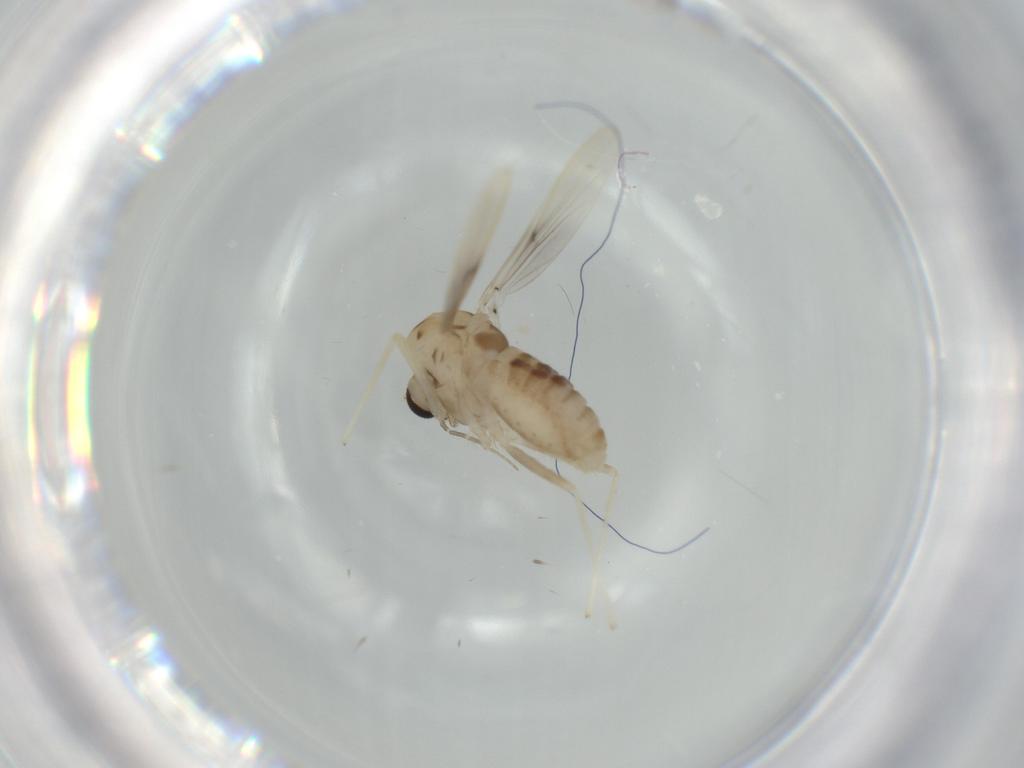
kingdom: Animalia
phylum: Arthropoda
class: Insecta
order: Diptera
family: Chironomidae
